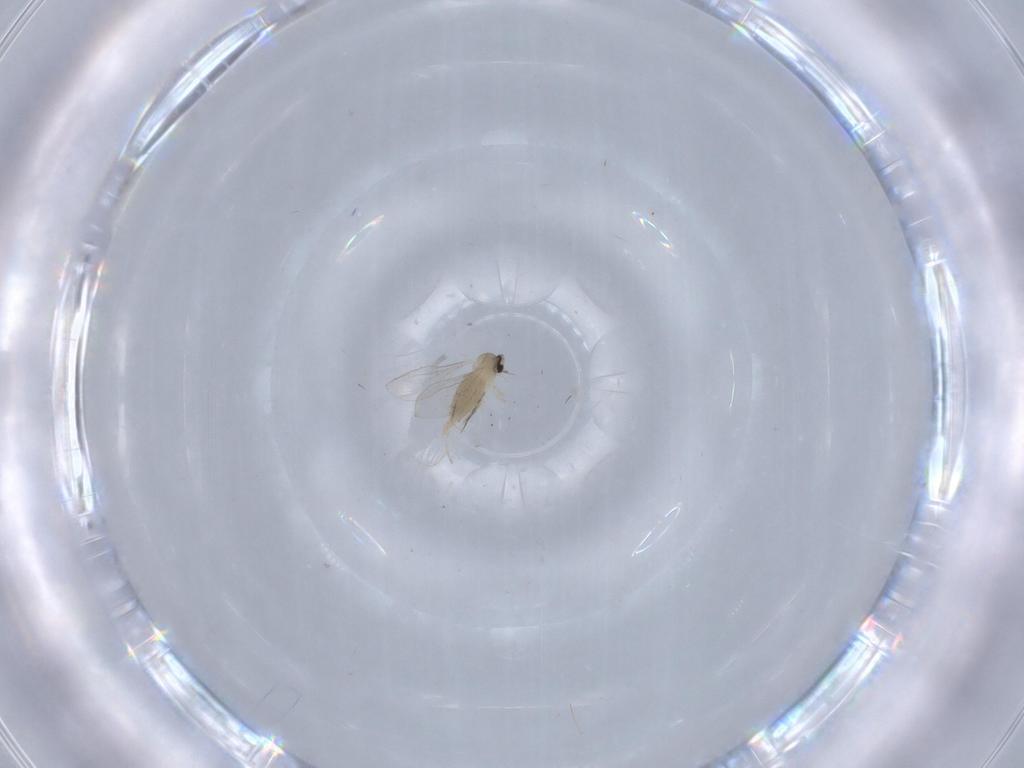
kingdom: Animalia
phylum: Arthropoda
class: Insecta
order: Diptera
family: Cecidomyiidae
